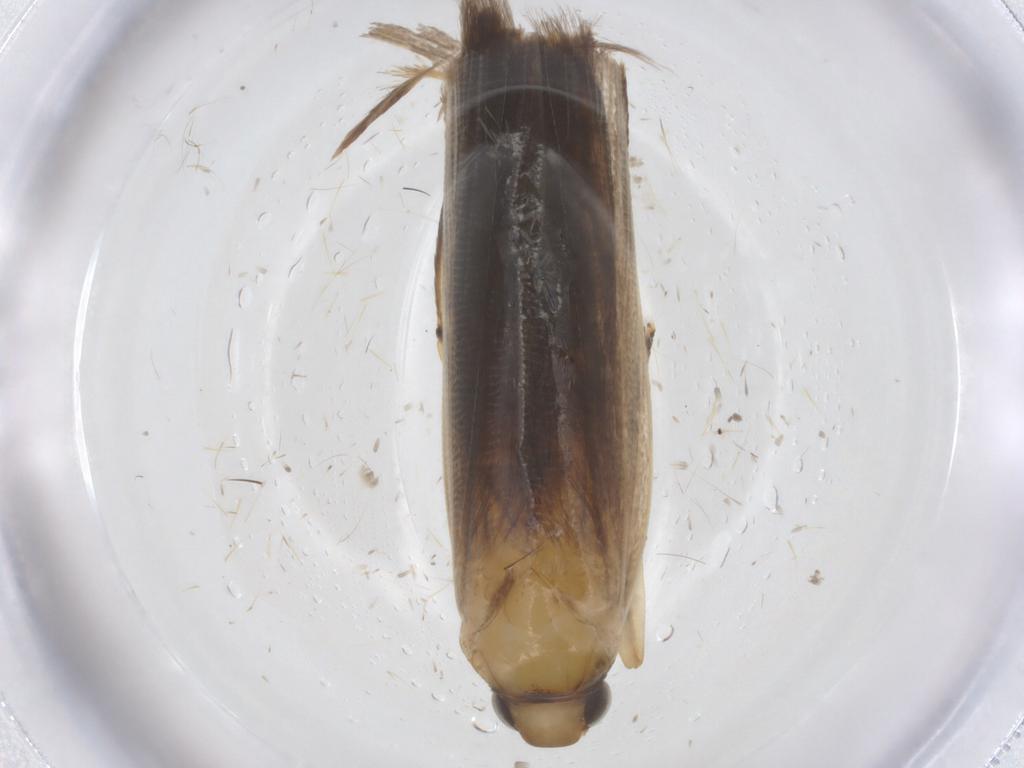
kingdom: Animalia
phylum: Arthropoda
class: Insecta
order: Lepidoptera
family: Gelechiidae
